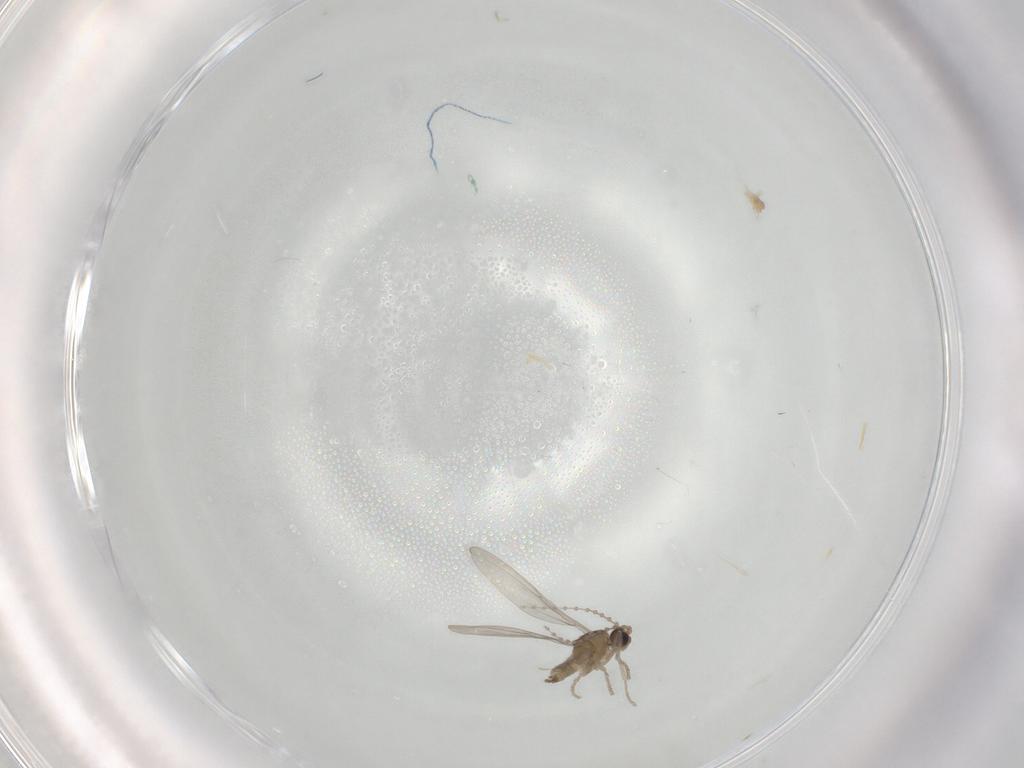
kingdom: Animalia
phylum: Arthropoda
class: Insecta
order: Diptera
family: Cecidomyiidae
